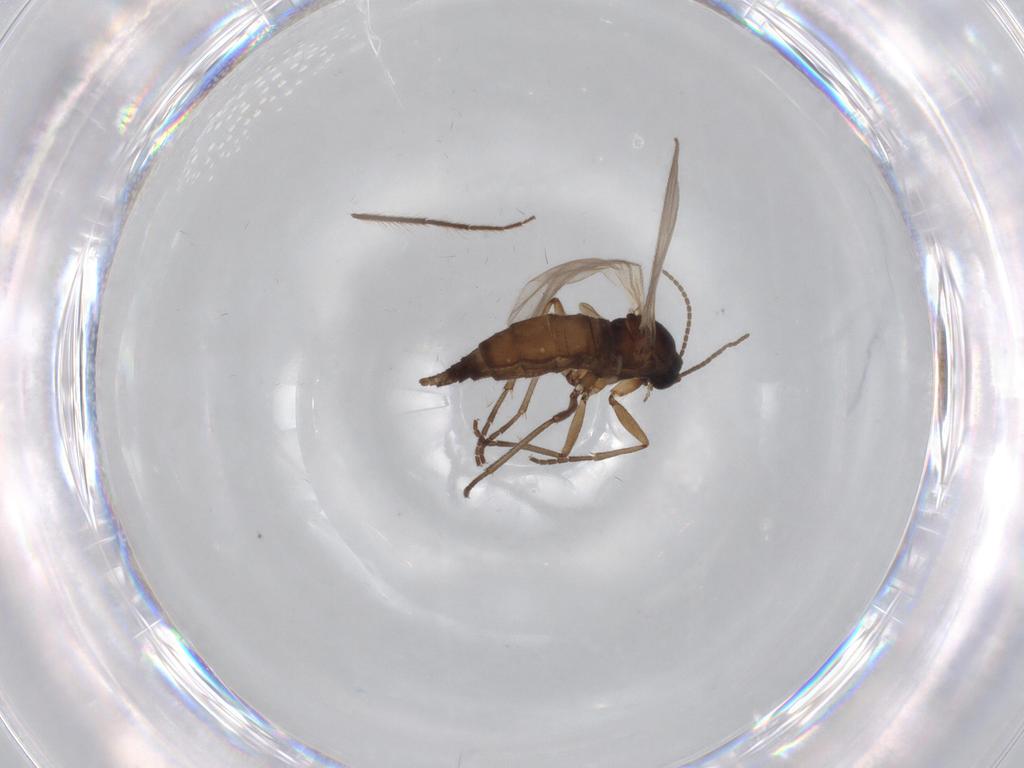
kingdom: Animalia
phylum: Arthropoda
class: Insecta
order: Diptera
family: Sciaridae
